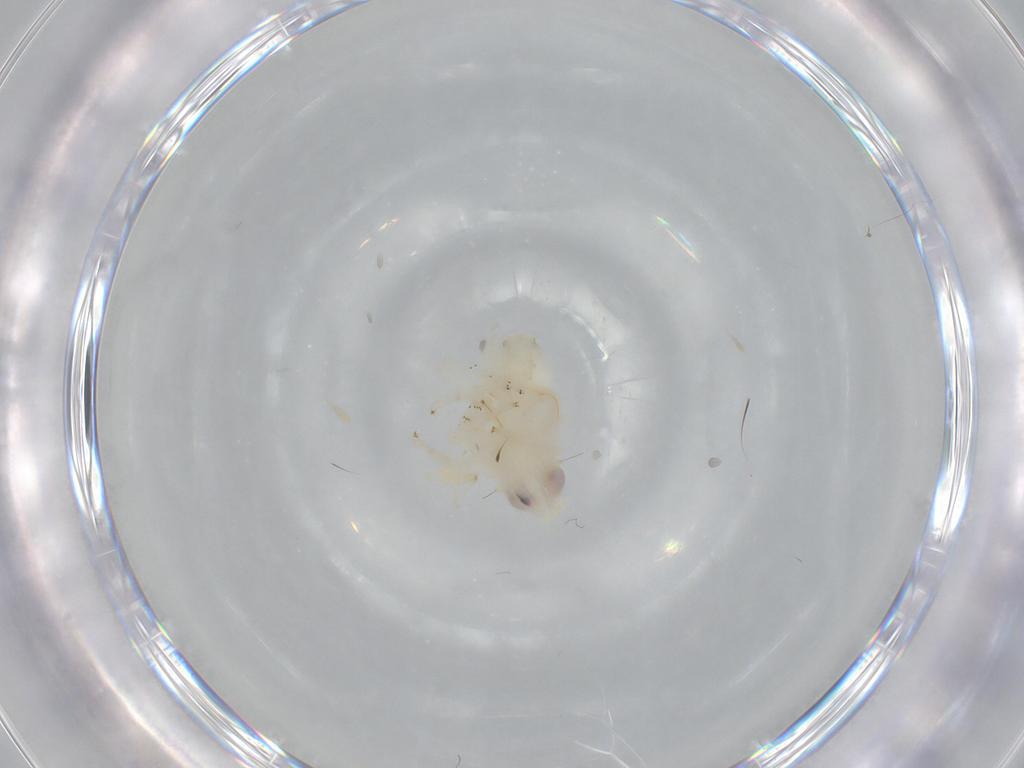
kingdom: Animalia
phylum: Arthropoda
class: Insecta
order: Hemiptera
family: Nogodinidae
